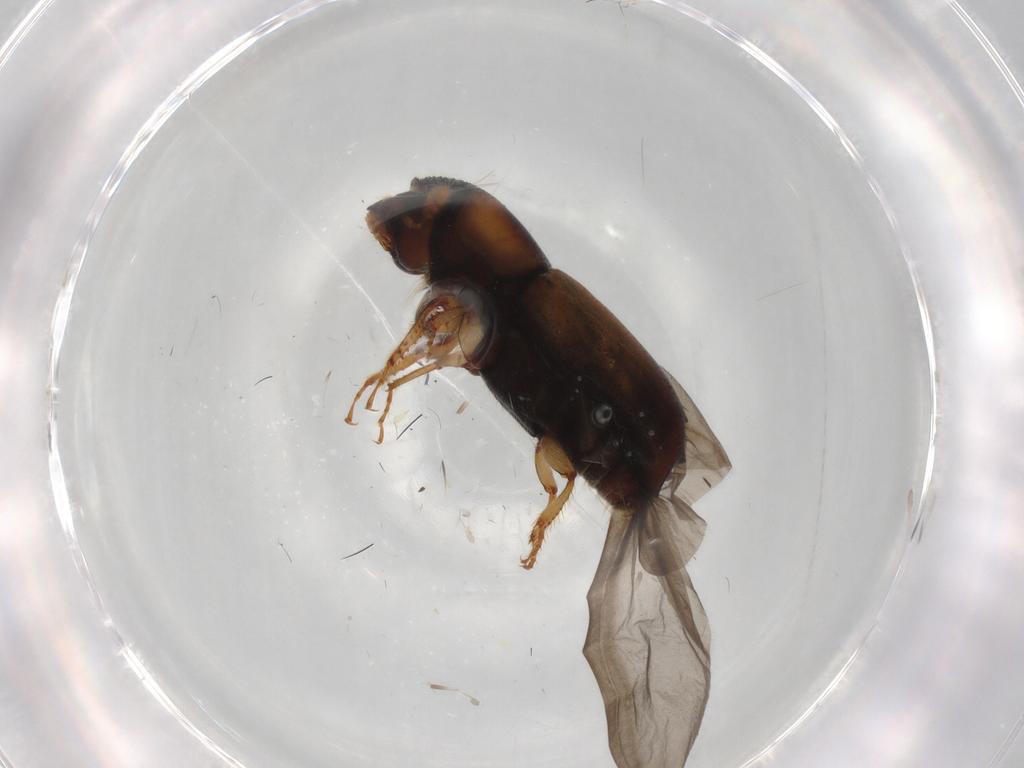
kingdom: Animalia
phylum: Arthropoda
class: Insecta
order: Coleoptera
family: Curculionidae
